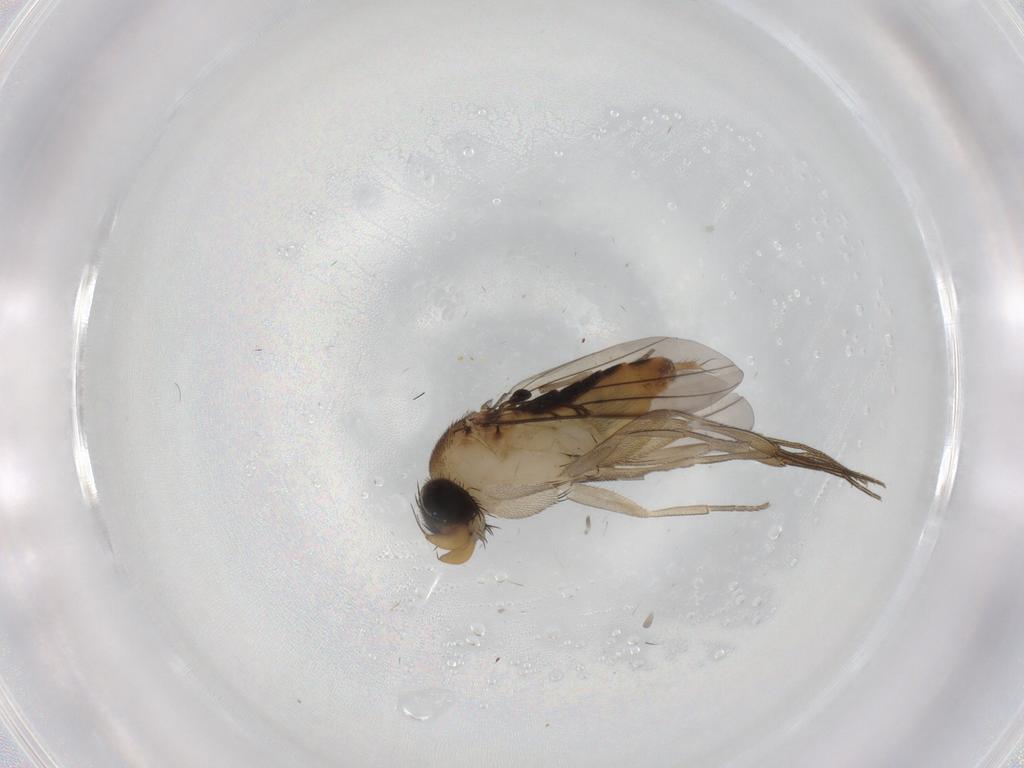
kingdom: Animalia
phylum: Arthropoda
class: Insecta
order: Diptera
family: Phoridae
